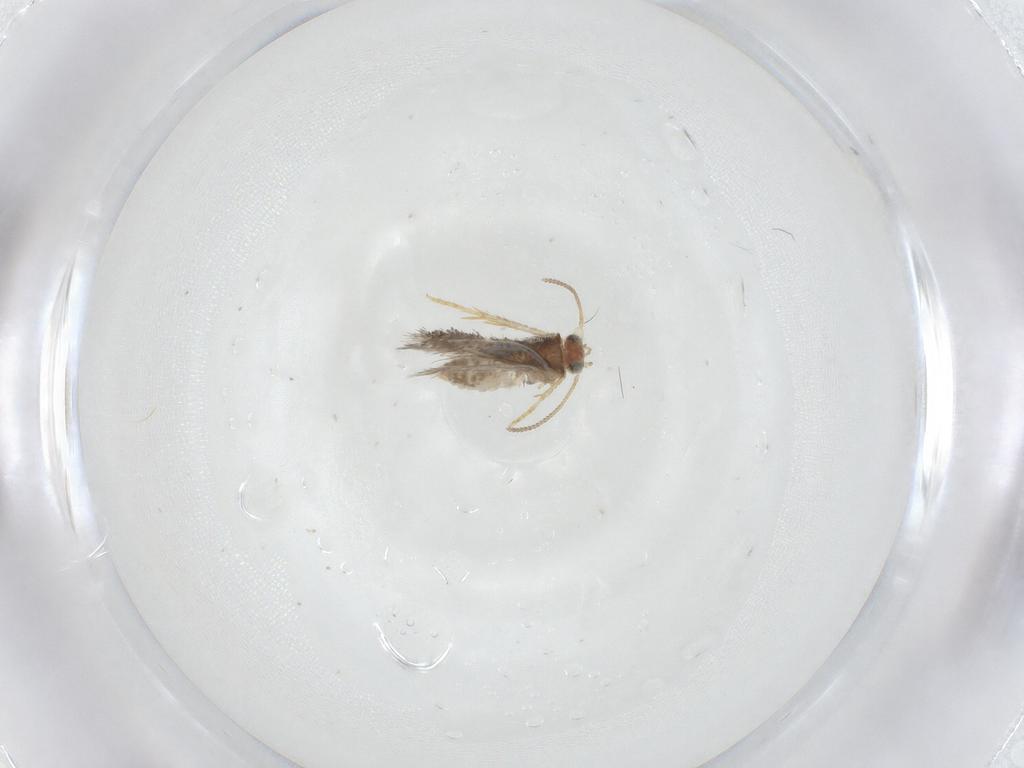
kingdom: Animalia
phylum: Arthropoda
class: Insecta
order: Lepidoptera
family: Nepticulidae
